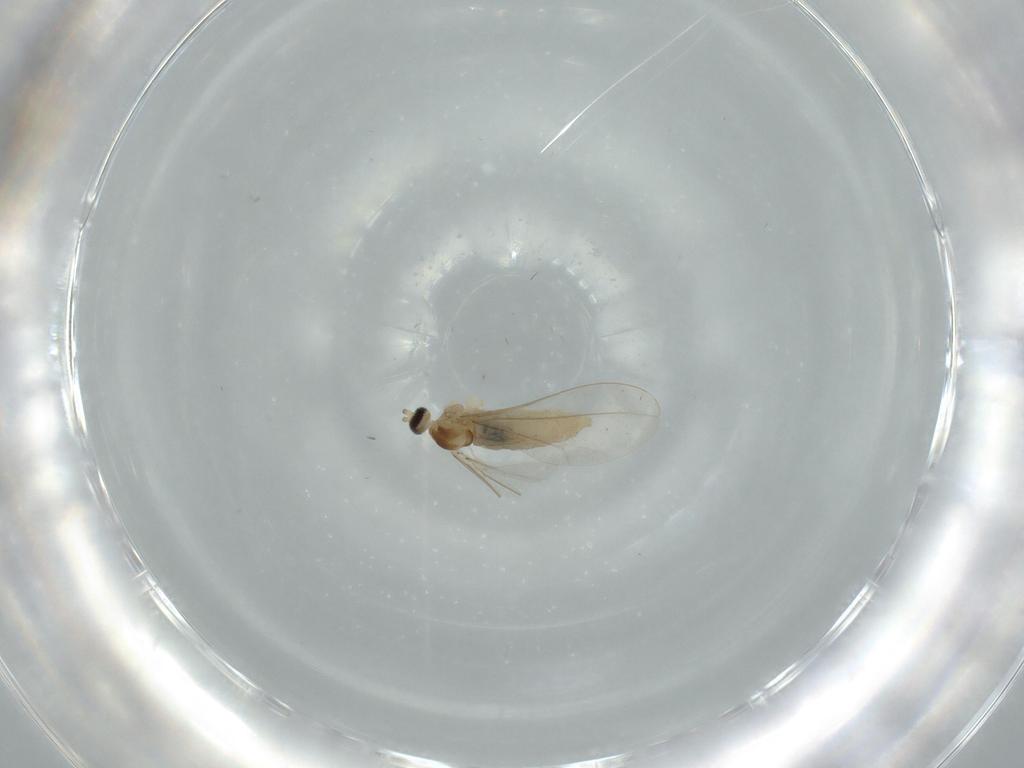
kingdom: Animalia
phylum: Arthropoda
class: Insecta
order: Diptera
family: Cecidomyiidae
